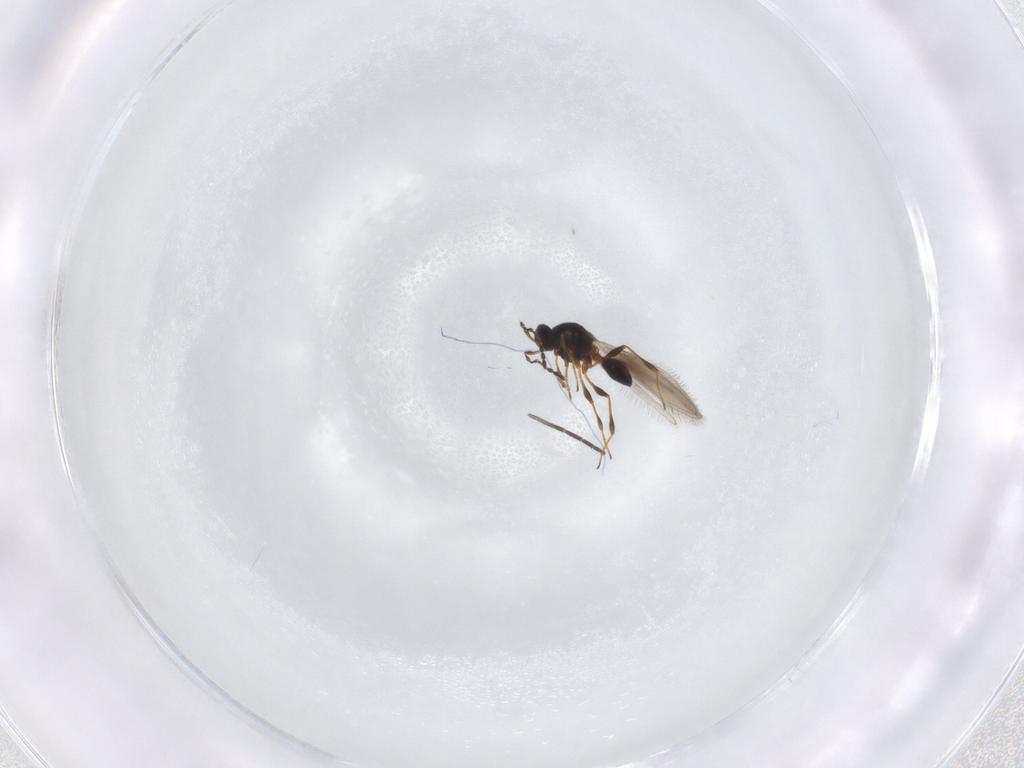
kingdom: Animalia
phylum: Arthropoda
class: Insecta
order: Hymenoptera
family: Platygastridae
